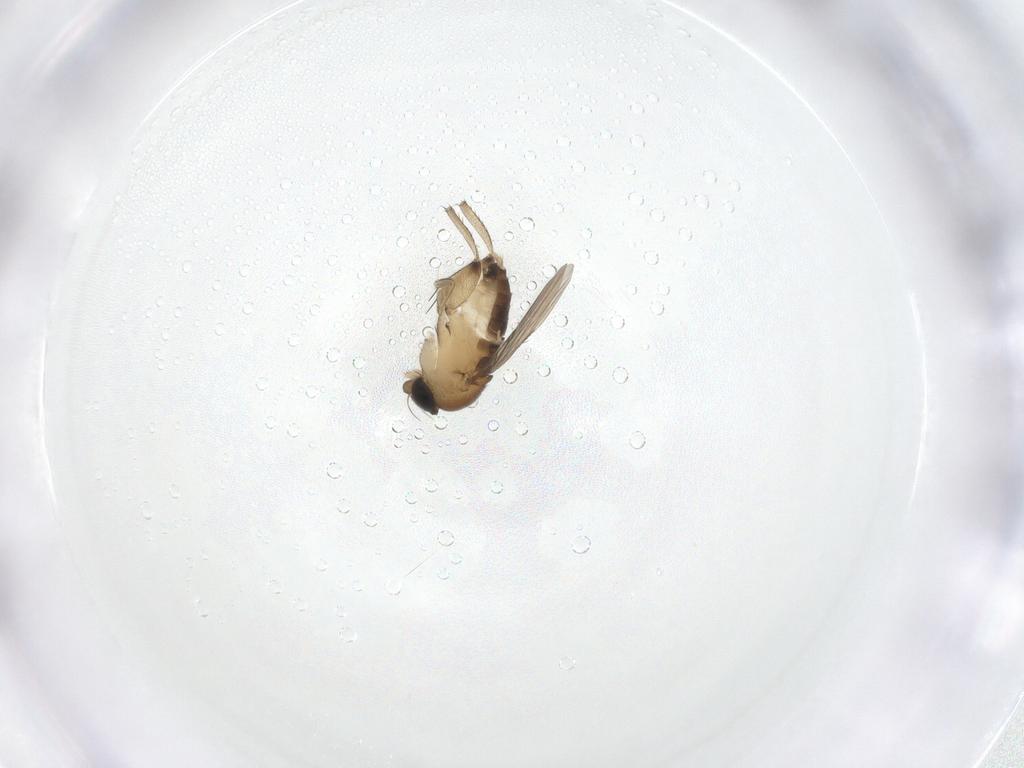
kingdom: Animalia
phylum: Arthropoda
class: Insecta
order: Diptera
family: Phoridae
